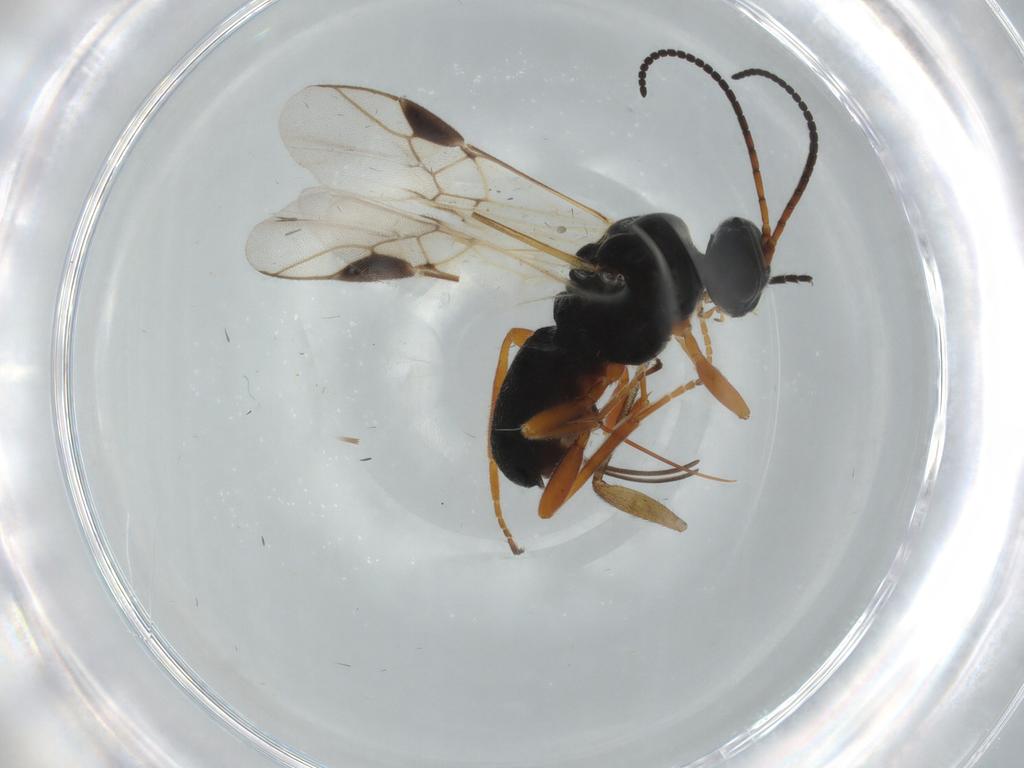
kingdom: Animalia
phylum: Arthropoda
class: Insecta
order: Hymenoptera
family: Braconidae
